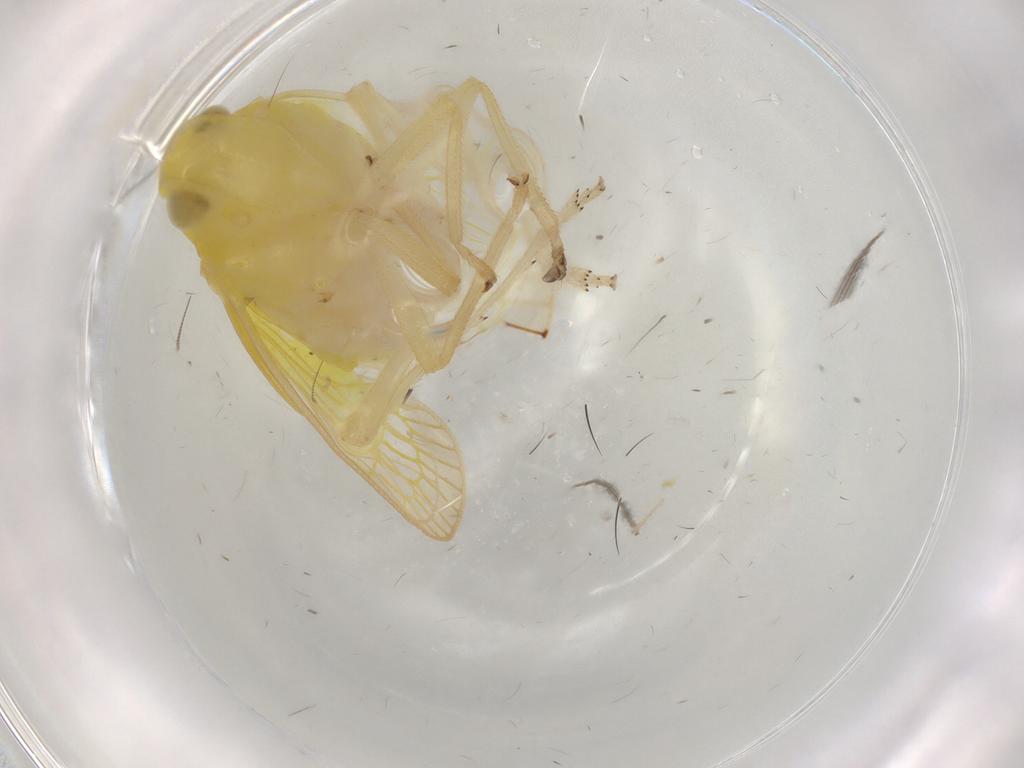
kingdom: Animalia
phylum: Arthropoda
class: Insecta
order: Hemiptera
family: Tropiduchidae
